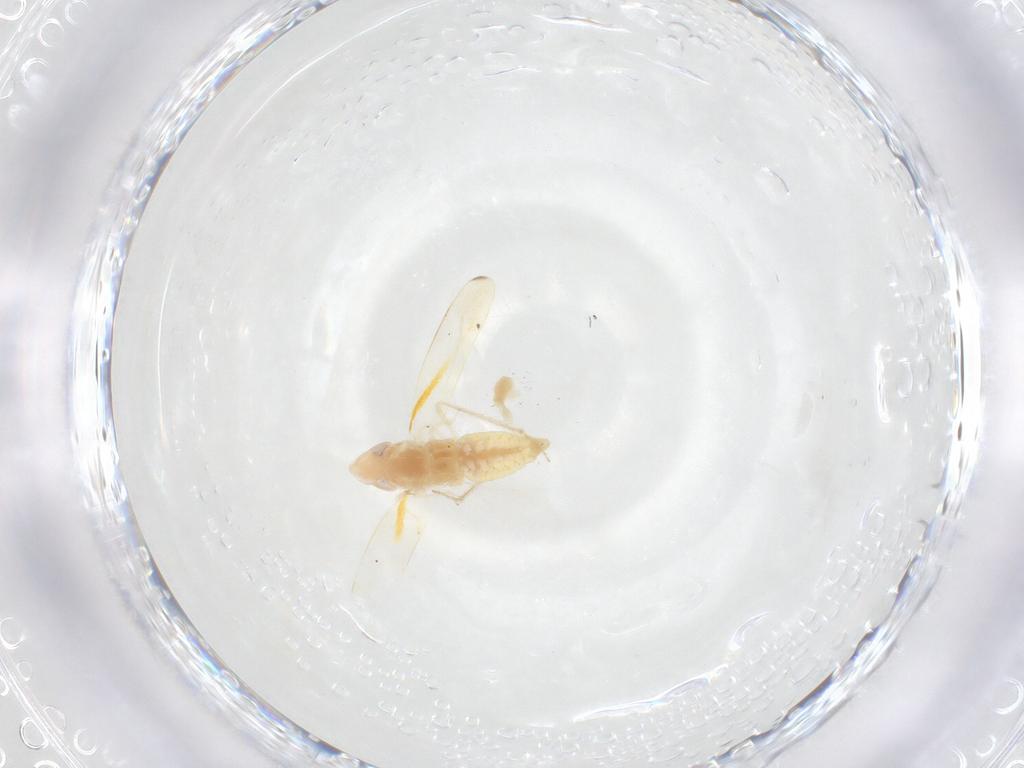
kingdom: Animalia
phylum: Arthropoda
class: Insecta
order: Hemiptera
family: Cicadellidae
